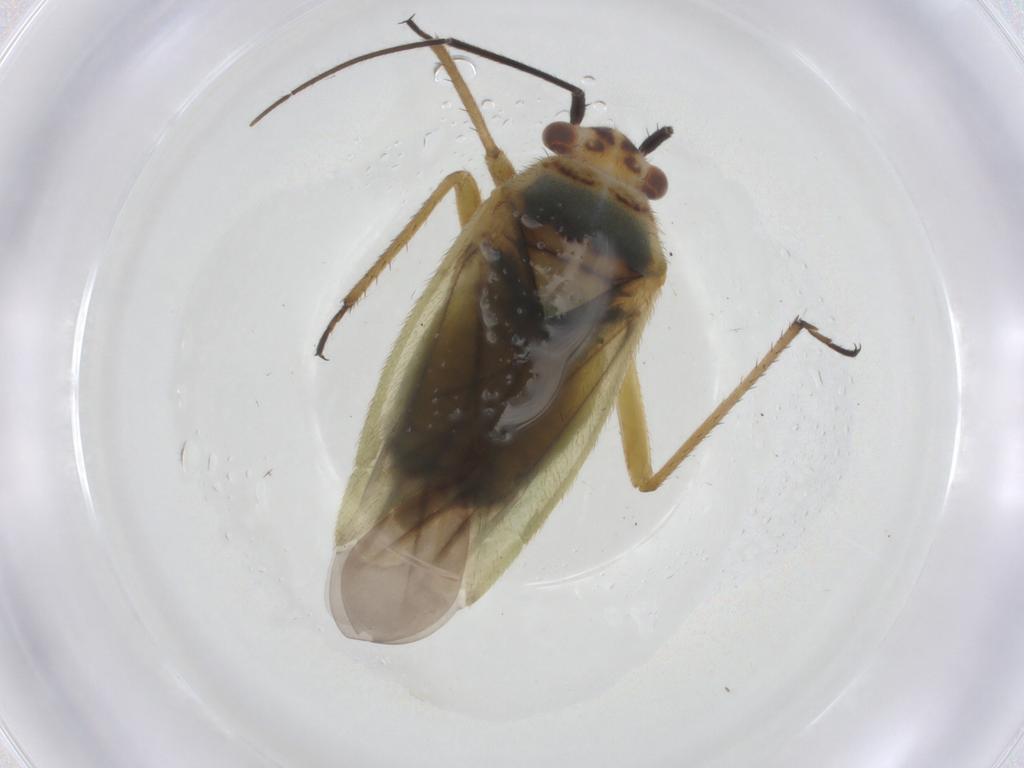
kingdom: Animalia
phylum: Arthropoda
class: Insecta
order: Hemiptera
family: Miridae
